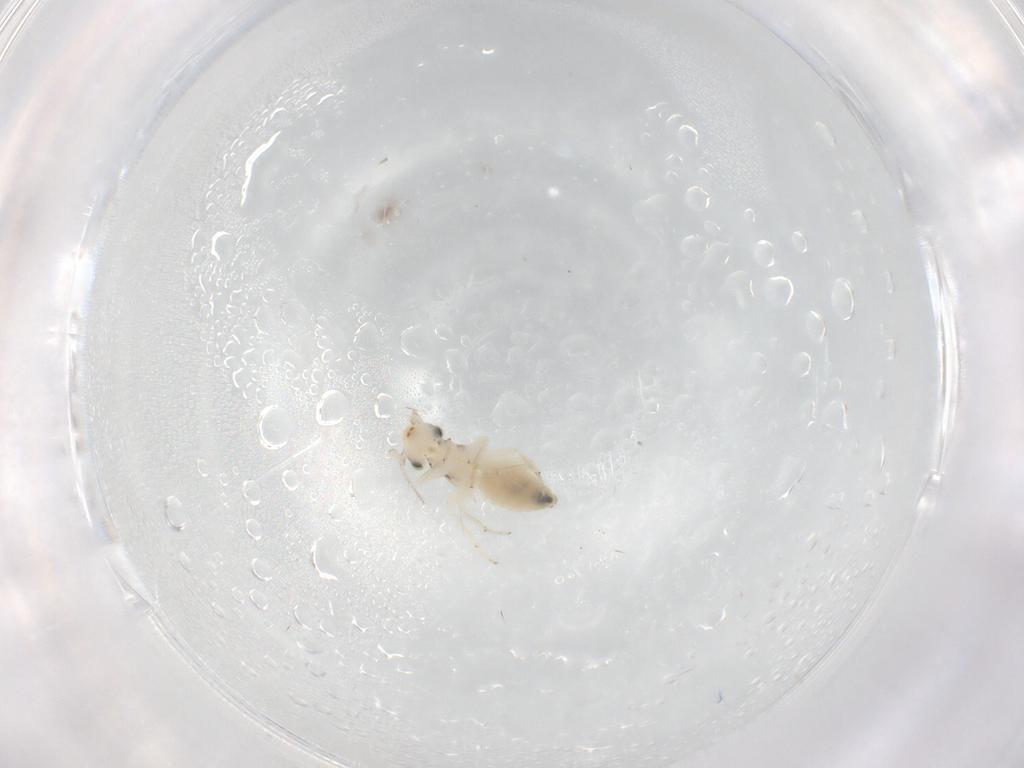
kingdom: Animalia
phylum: Arthropoda
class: Insecta
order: Psocodea
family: Lepidopsocidae
